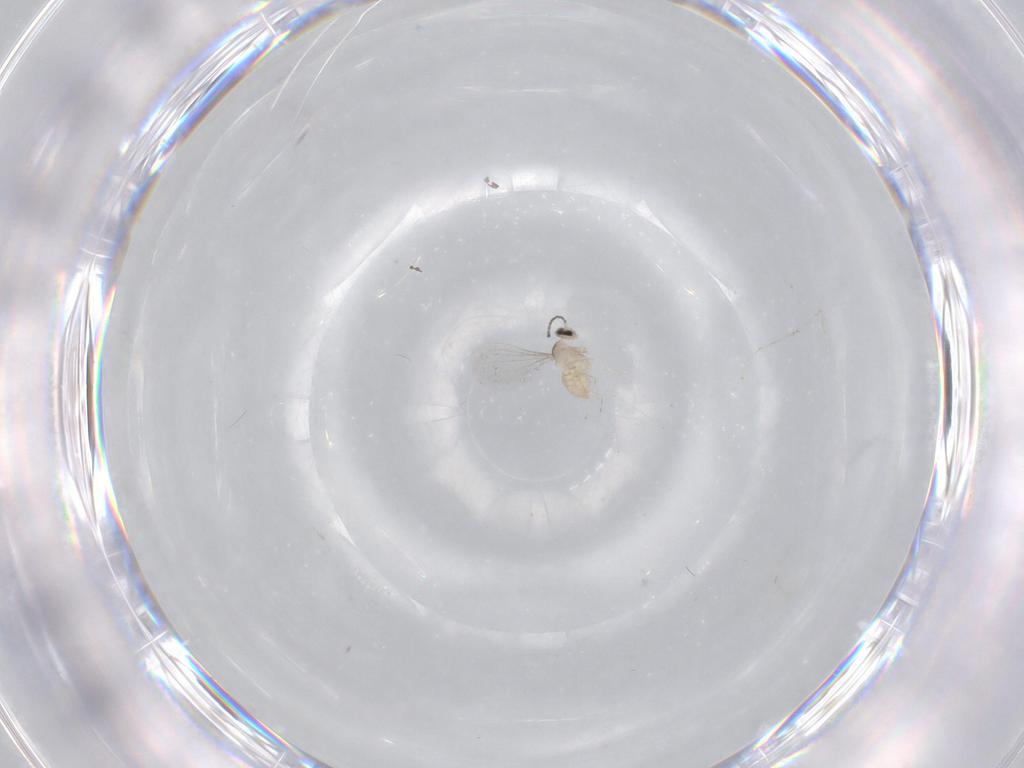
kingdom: Animalia
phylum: Arthropoda
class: Insecta
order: Diptera
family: Cecidomyiidae
